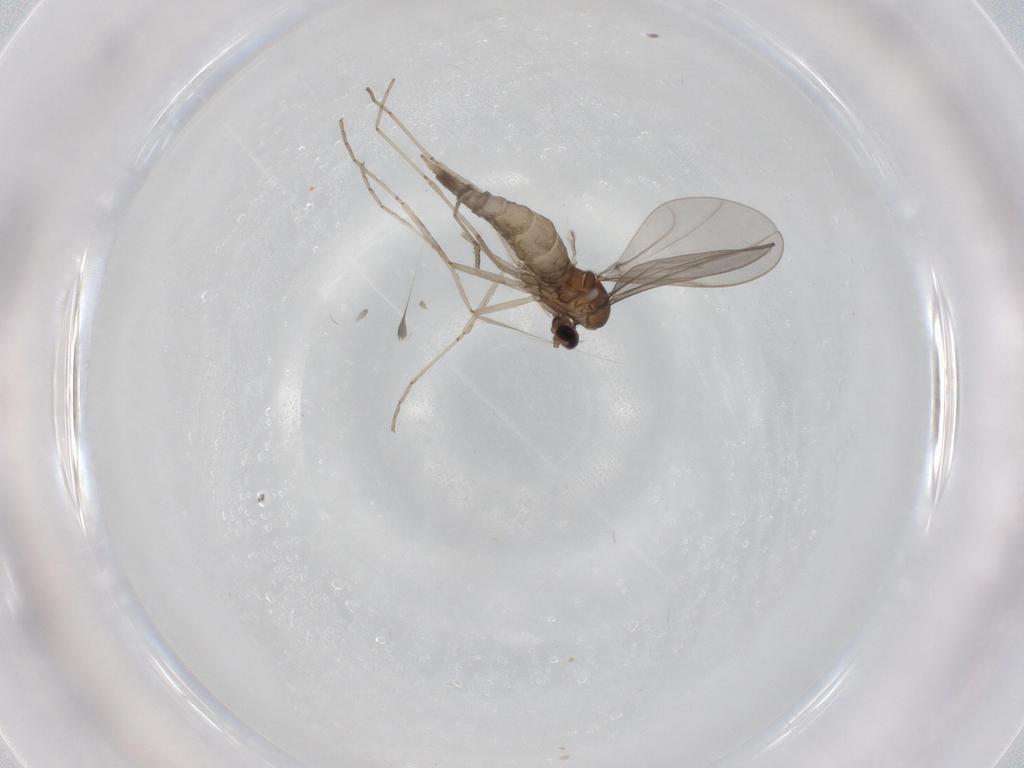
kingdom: Animalia
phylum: Arthropoda
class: Insecta
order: Diptera
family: Cecidomyiidae
